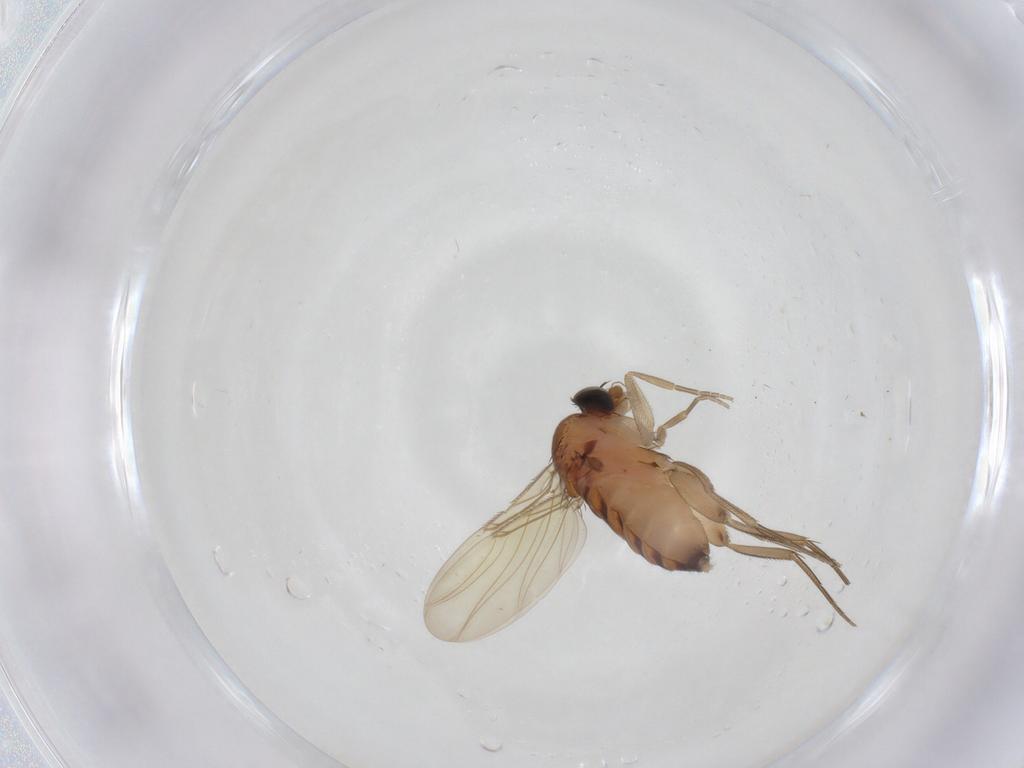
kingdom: Animalia
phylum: Arthropoda
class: Insecta
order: Diptera
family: Phoridae
